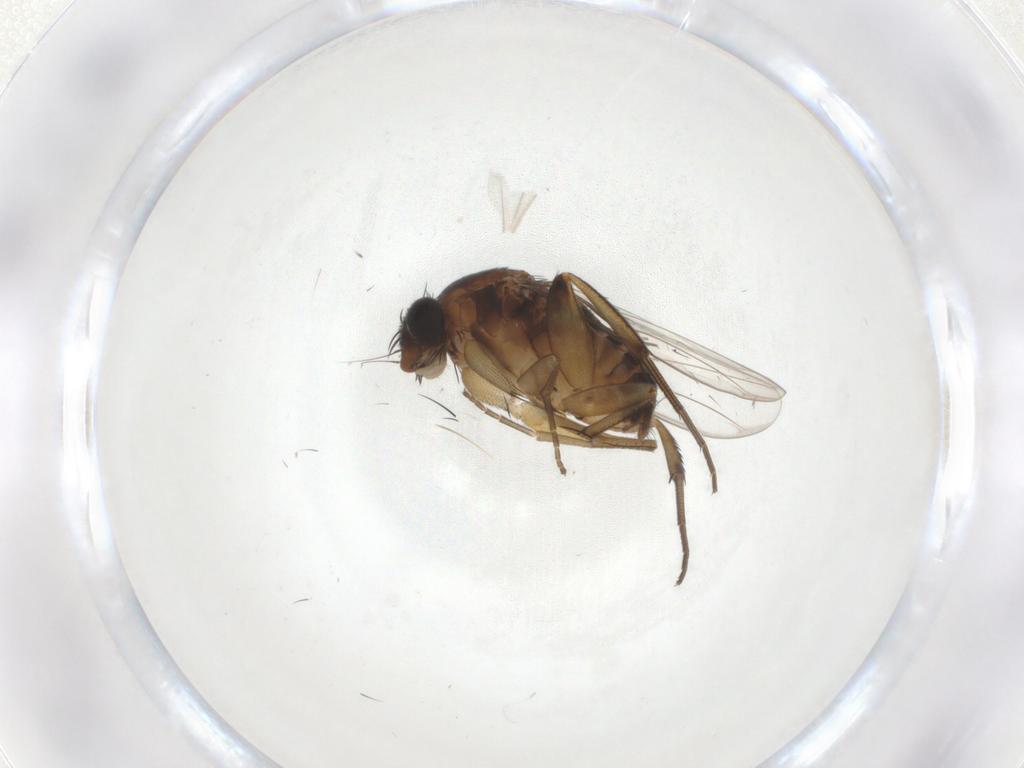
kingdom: Animalia
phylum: Arthropoda
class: Insecta
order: Diptera
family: Phoridae
